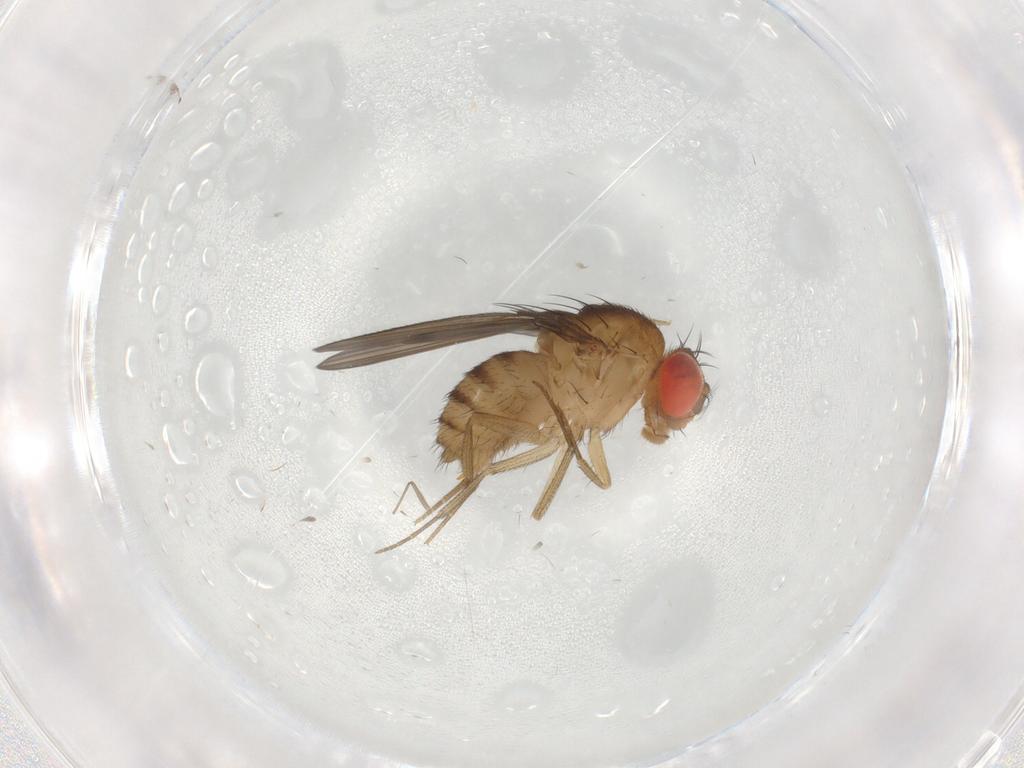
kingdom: Animalia
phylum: Arthropoda
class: Insecta
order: Diptera
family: Drosophilidae
